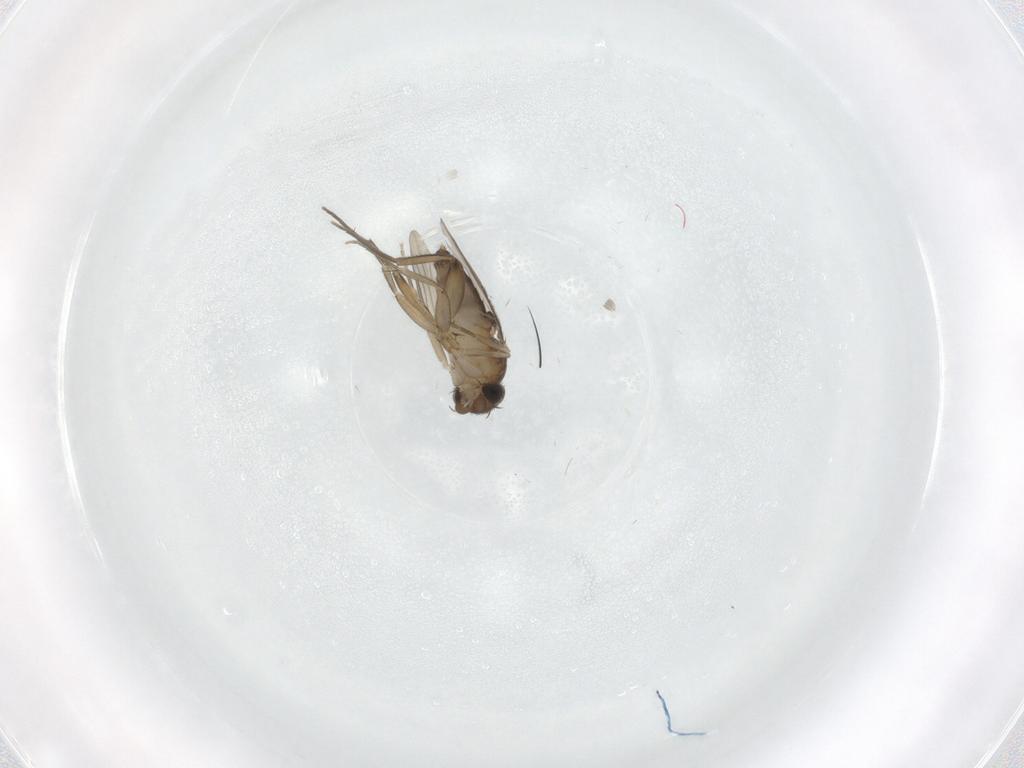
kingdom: Animalia
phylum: Arthropoda
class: Insecta
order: Diptera
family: Phoridae
